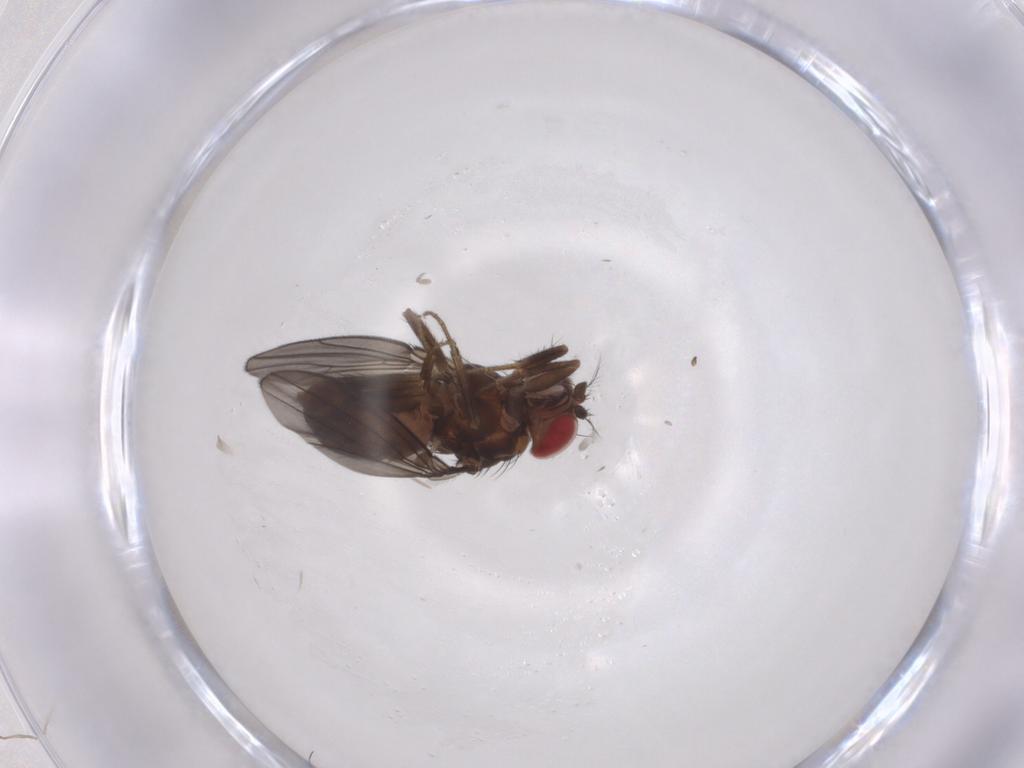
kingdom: Animalia
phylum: Arthropoda
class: Insecta
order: Diptera
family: Drosophilidae
